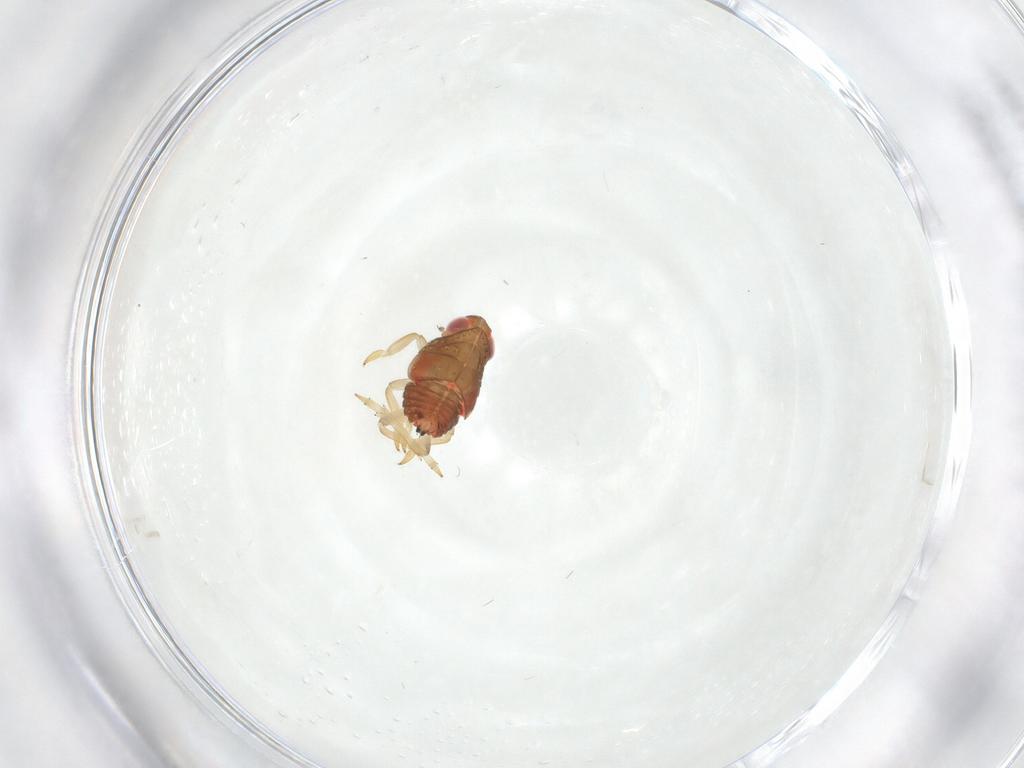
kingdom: Animalia
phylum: Arthropoda
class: Insecta
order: Hemiptera
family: Issidae
